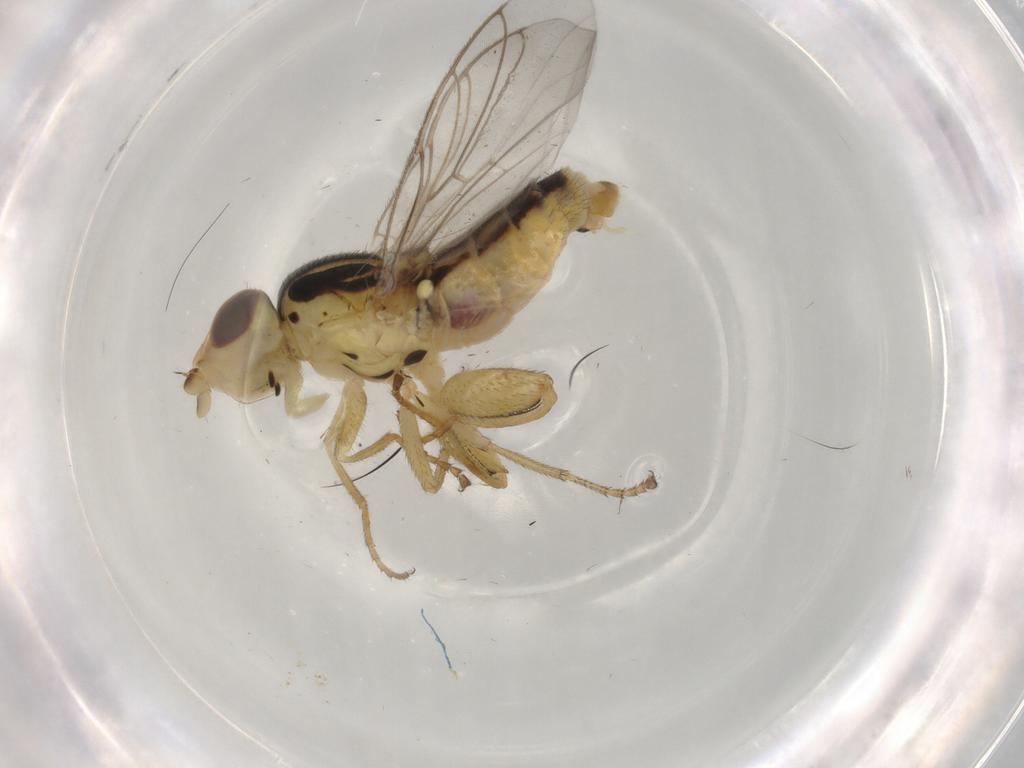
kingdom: Animalia
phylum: Arthropoda
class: Insecta
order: Diptera
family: Chloropidae
